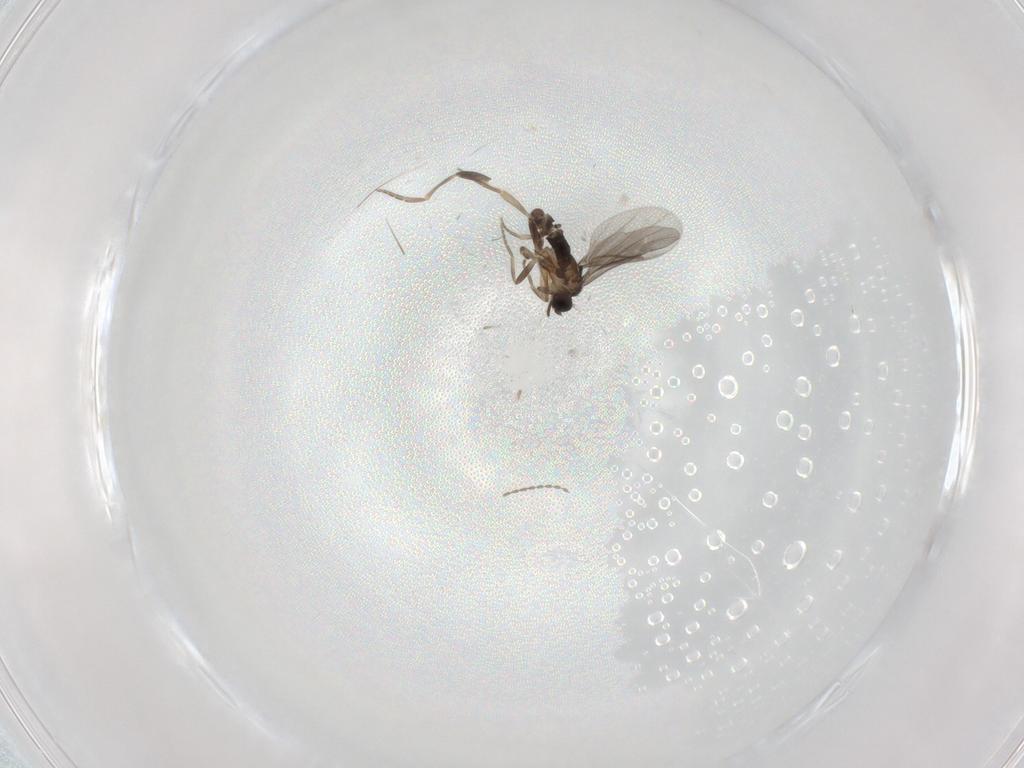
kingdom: Animalia
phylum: Arthropoda
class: Insecta
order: Diptera
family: Cecidomyiidae
